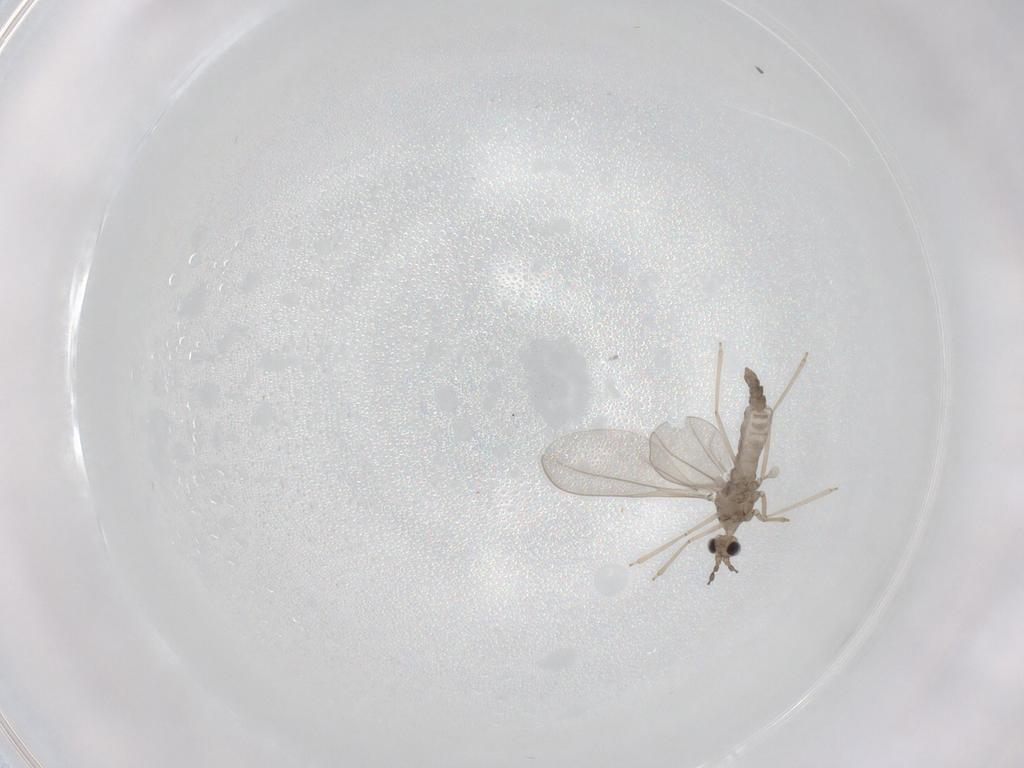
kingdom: Animalia
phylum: Arthropoda
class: Insecta
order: Diptera
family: Cecidomyiidae
